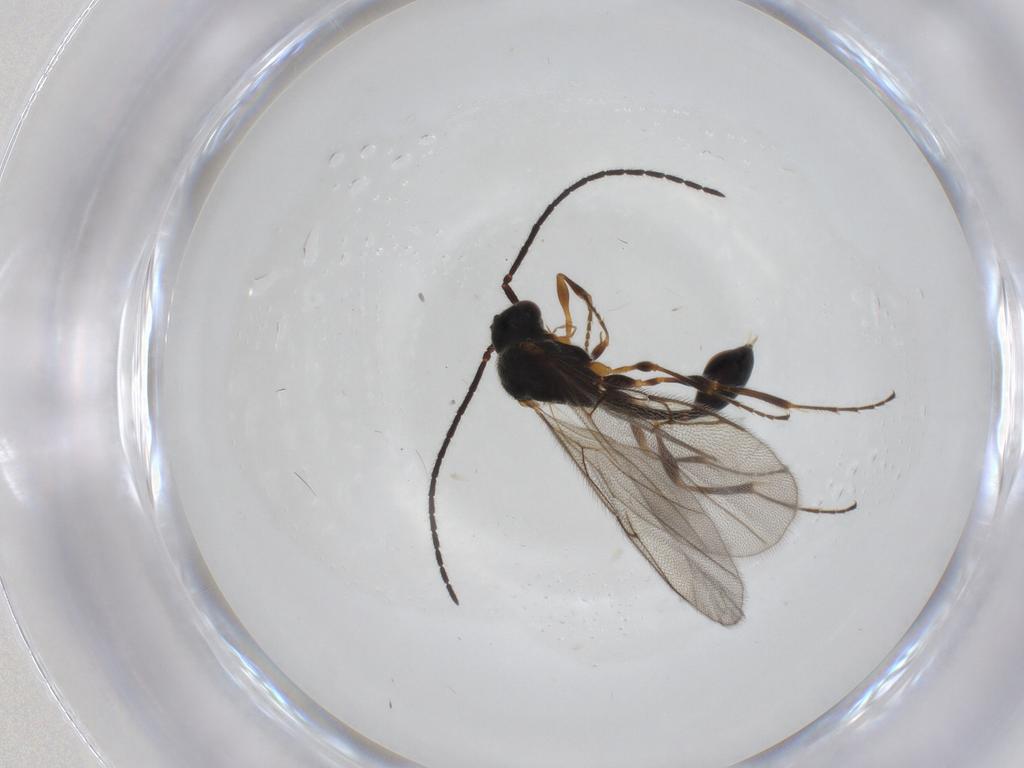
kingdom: Animalia
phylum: Arthropoda
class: Insecta
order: Hymenoptera
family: Diapriidae
